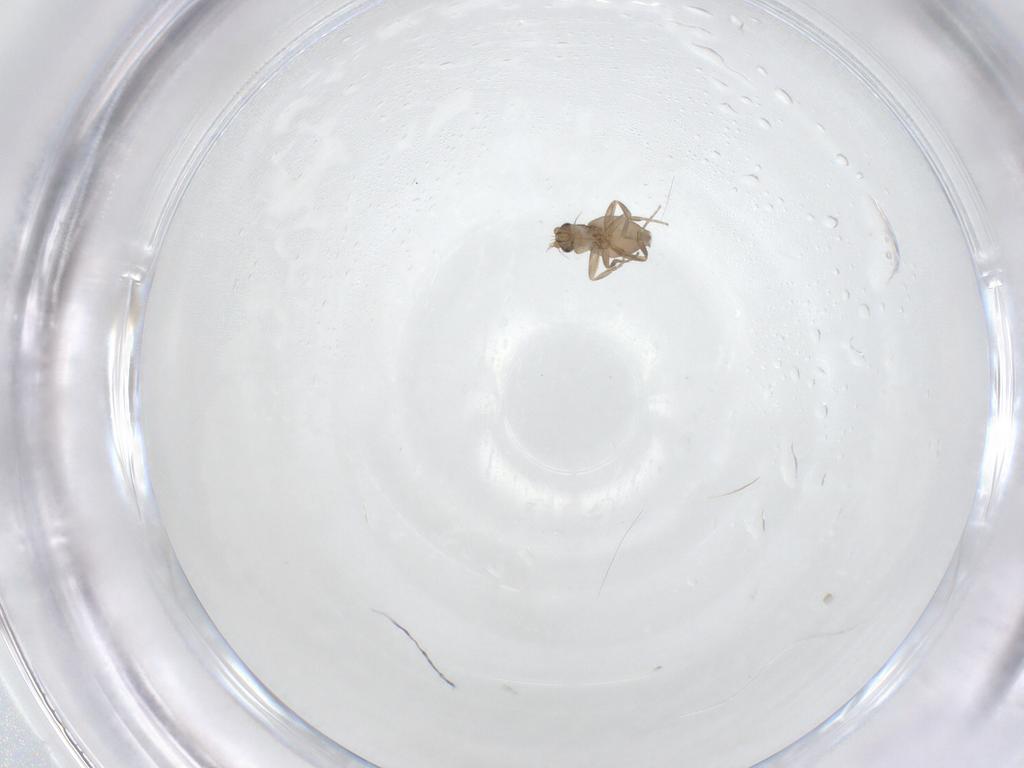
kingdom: Animalia
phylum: Arthropoda
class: Insecta
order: Diptera
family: Phoridae
